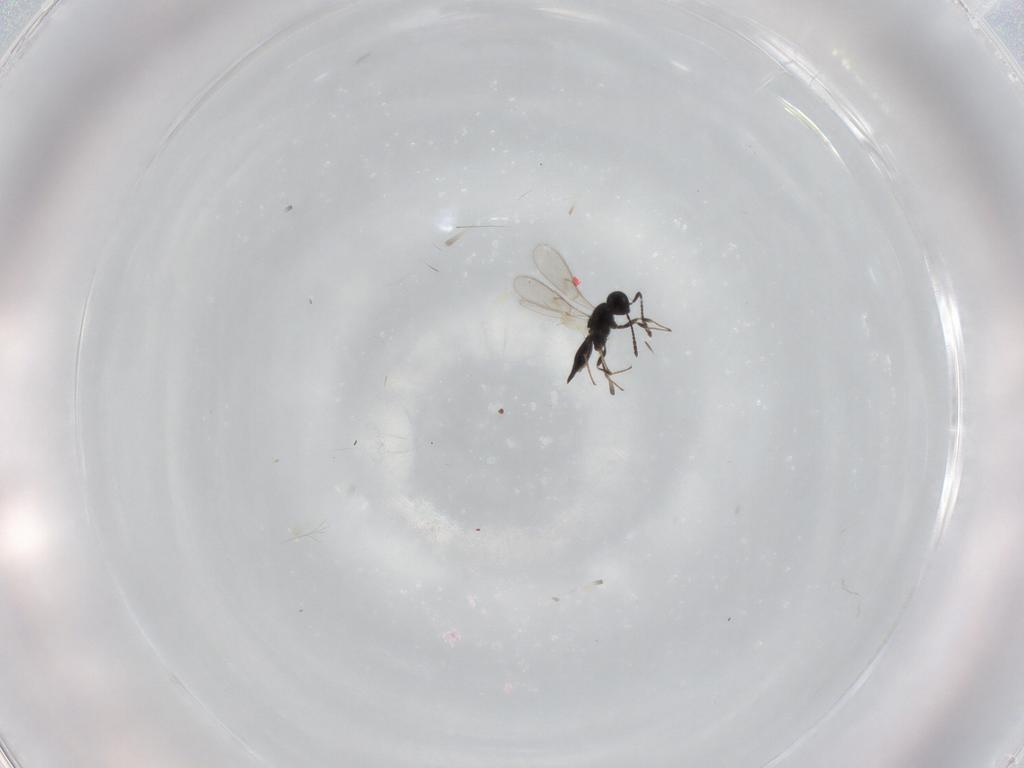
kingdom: Animalia
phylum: Arthropoda
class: Insecta
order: Hymenoptera
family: Scelionidae
